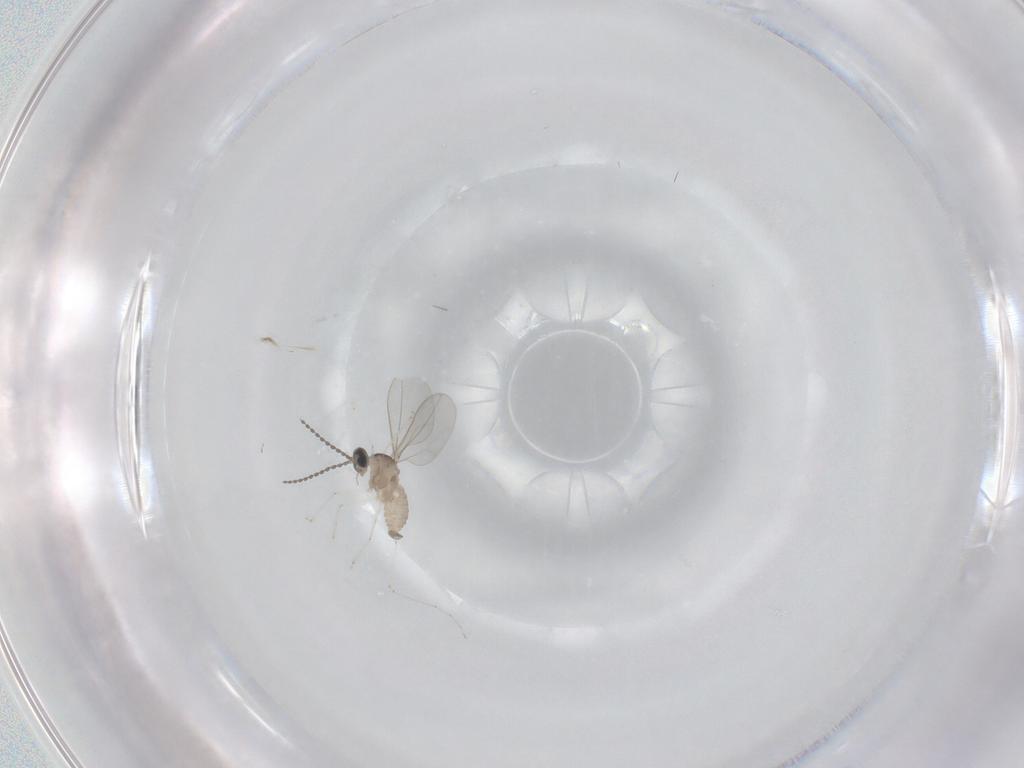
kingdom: Animalia
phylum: Arthropoda
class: Insecta
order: Diptera
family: Cecidomyiidae
